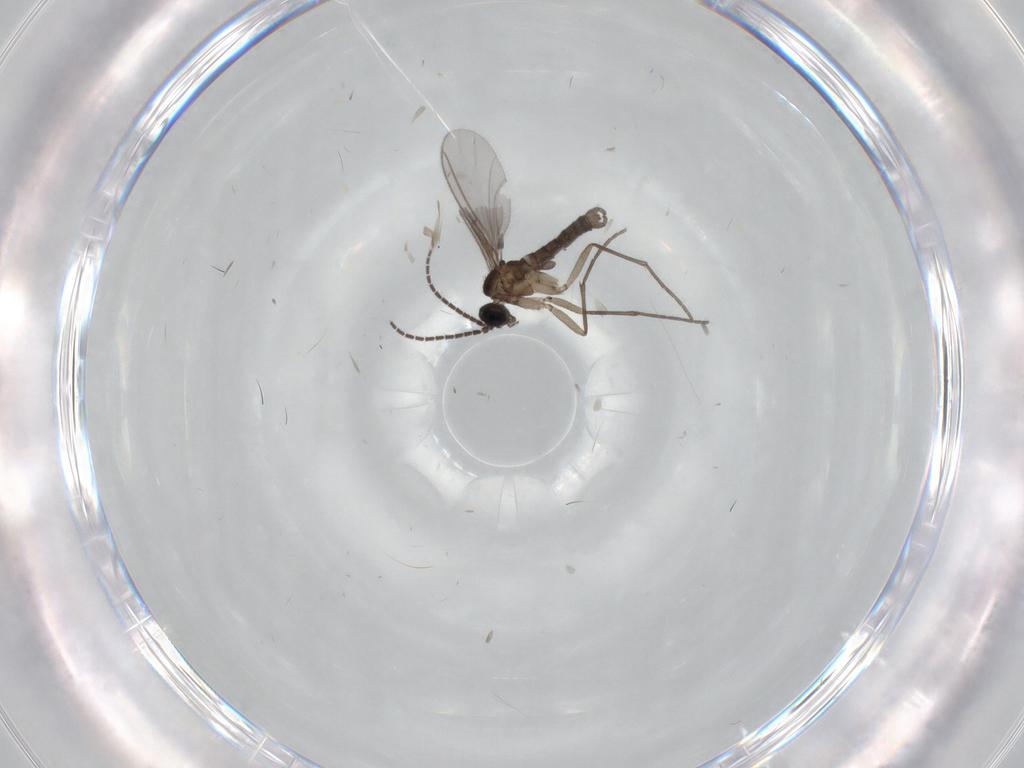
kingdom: Animalia
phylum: Arthropoda
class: Insecta
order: Diptera
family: Sciaridae
